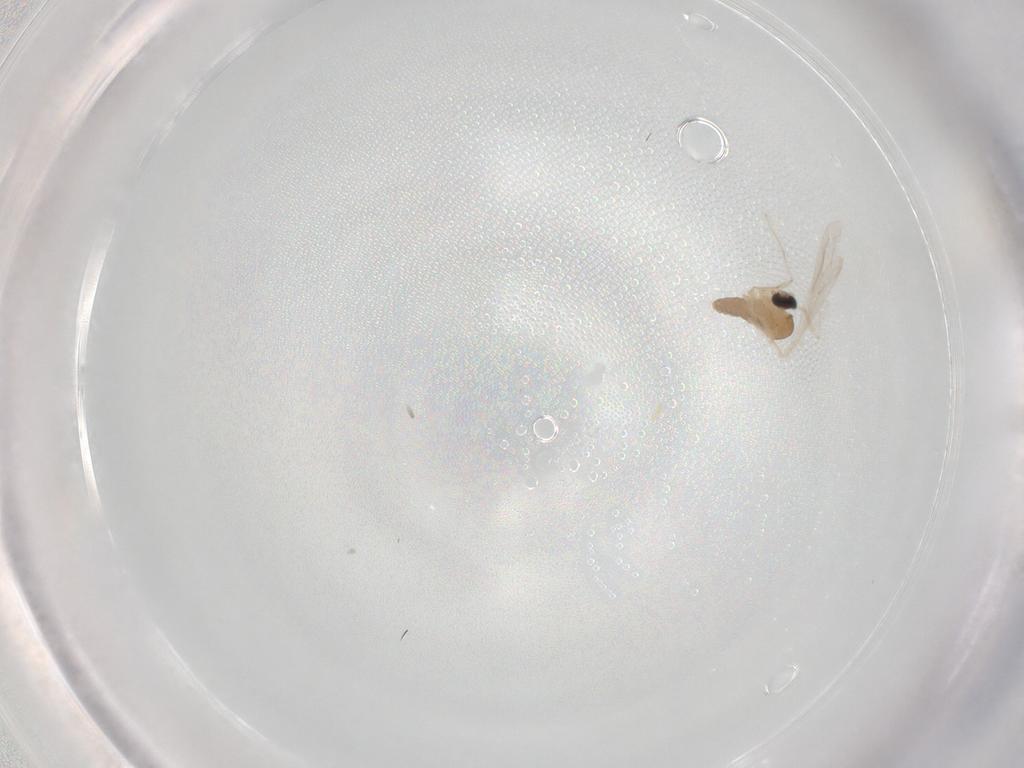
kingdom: Animalia
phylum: Arthropoda
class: Insecta
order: Diptera
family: Cecidomyiidae
